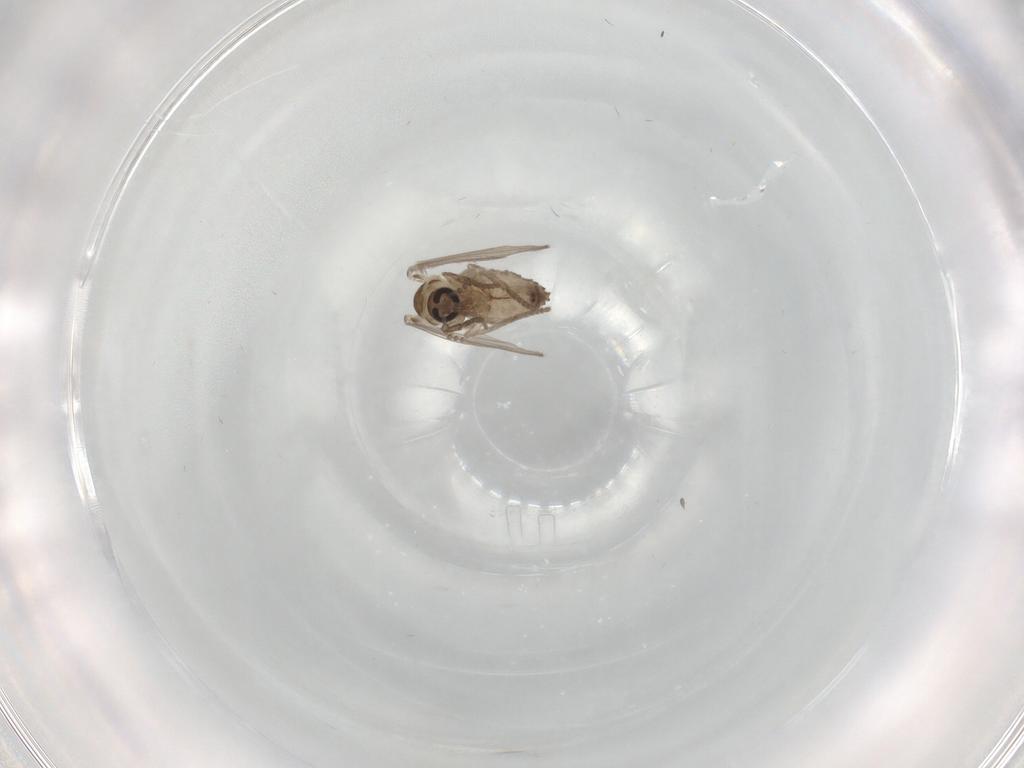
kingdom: Animalia
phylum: Arthropoda
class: Insecta
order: Diptera
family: Psychodidae
